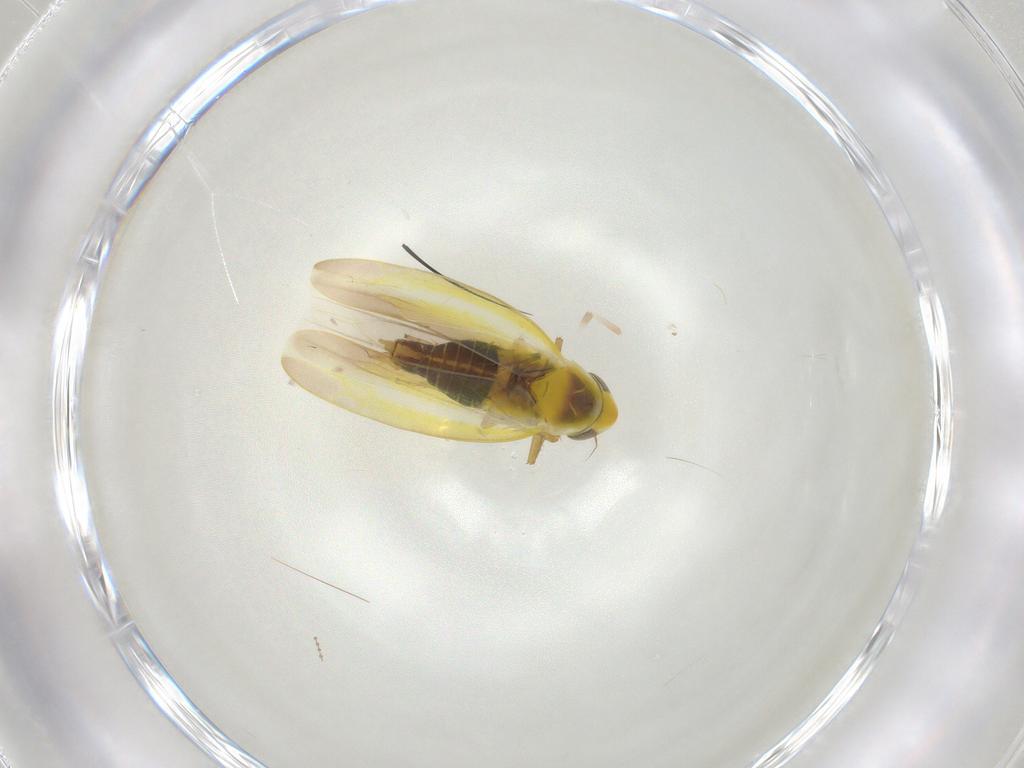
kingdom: Animalia
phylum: Arthropoda
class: Insecta
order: Hemiptera
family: Cicadellidae
